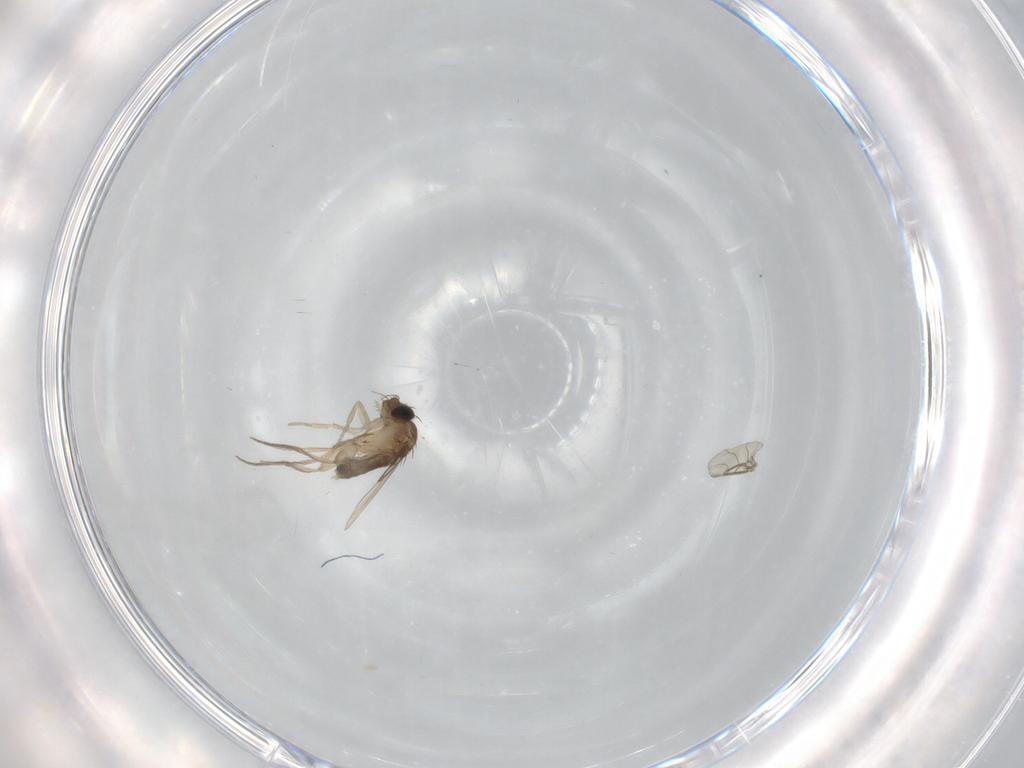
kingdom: Animalia
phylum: Arthropoda
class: Insecta
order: Diptera
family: Phoridae
